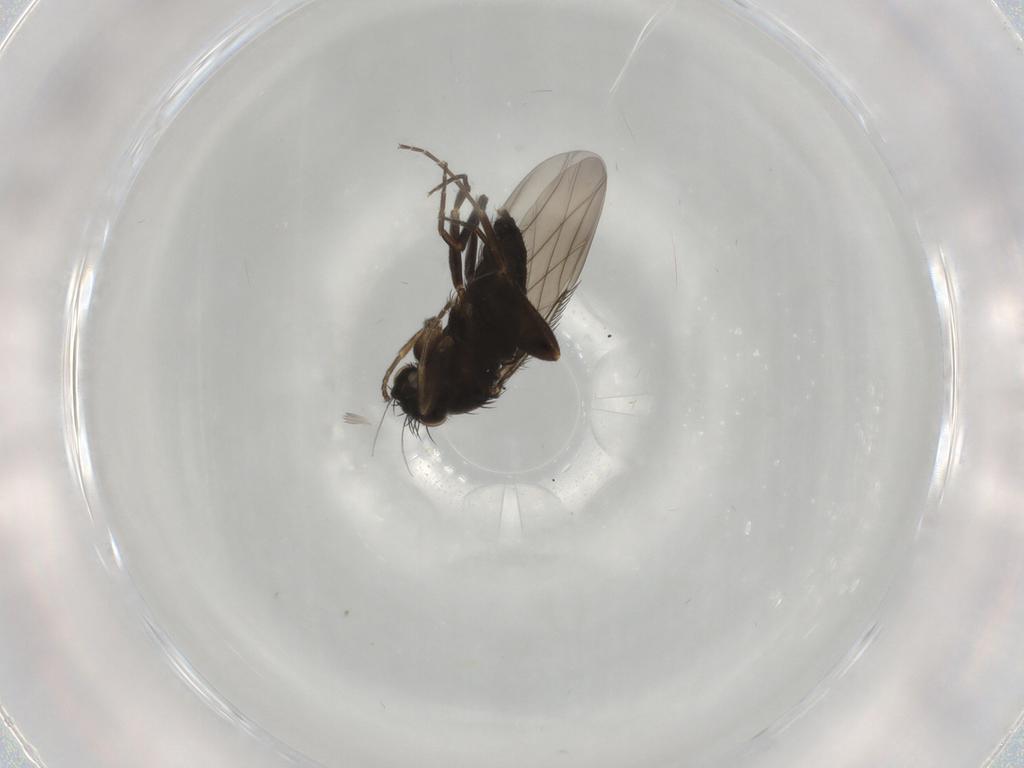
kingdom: Animalia
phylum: Arthropoda
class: Insecta
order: Diptera
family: Phoridae
